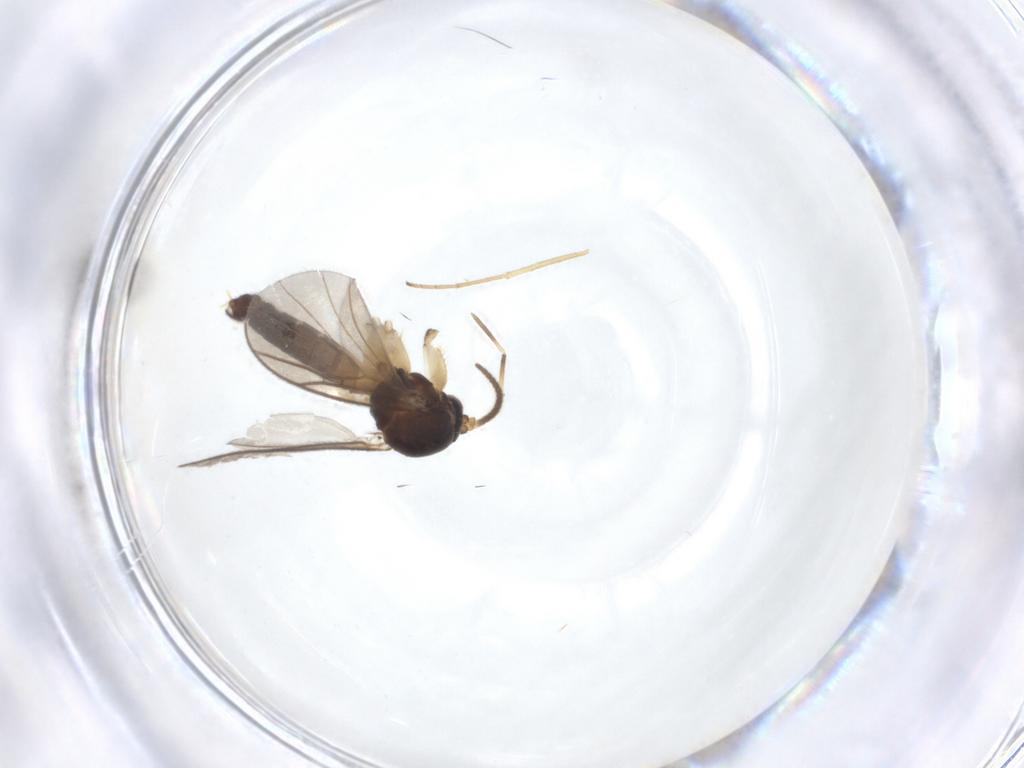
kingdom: Animalia
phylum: Arthropoda
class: Insecta
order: Diptera
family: Mycetophilidae
